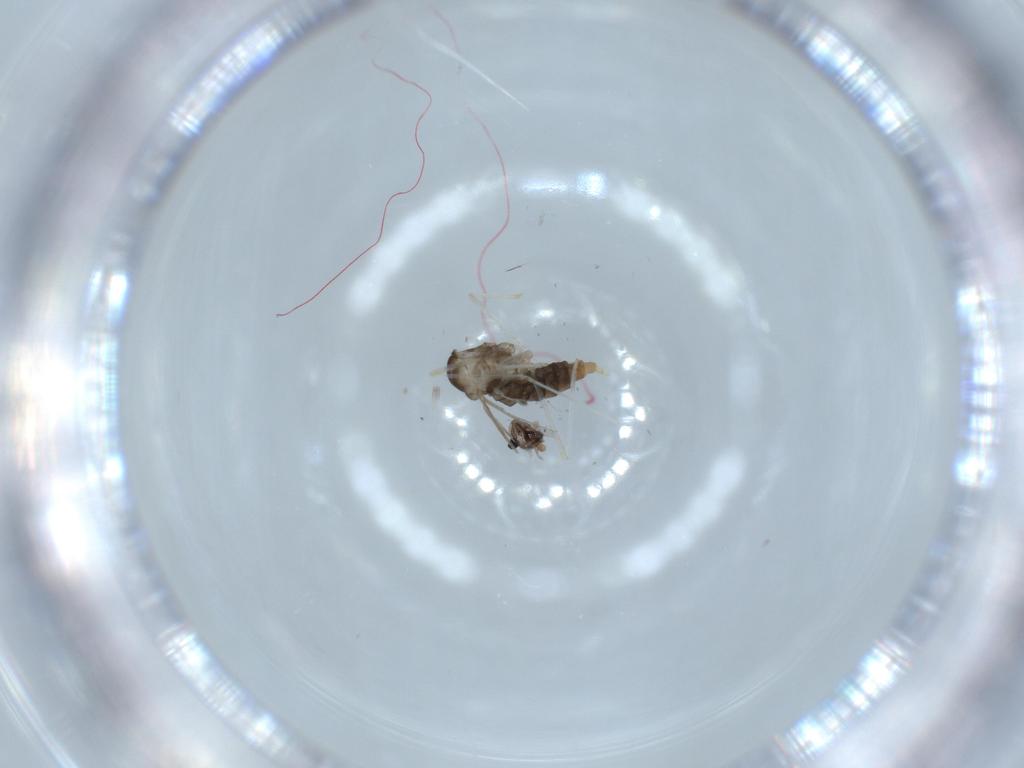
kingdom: Animalia
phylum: Arthropoda
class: Insecta
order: Diptera
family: Cecidomyiidae
